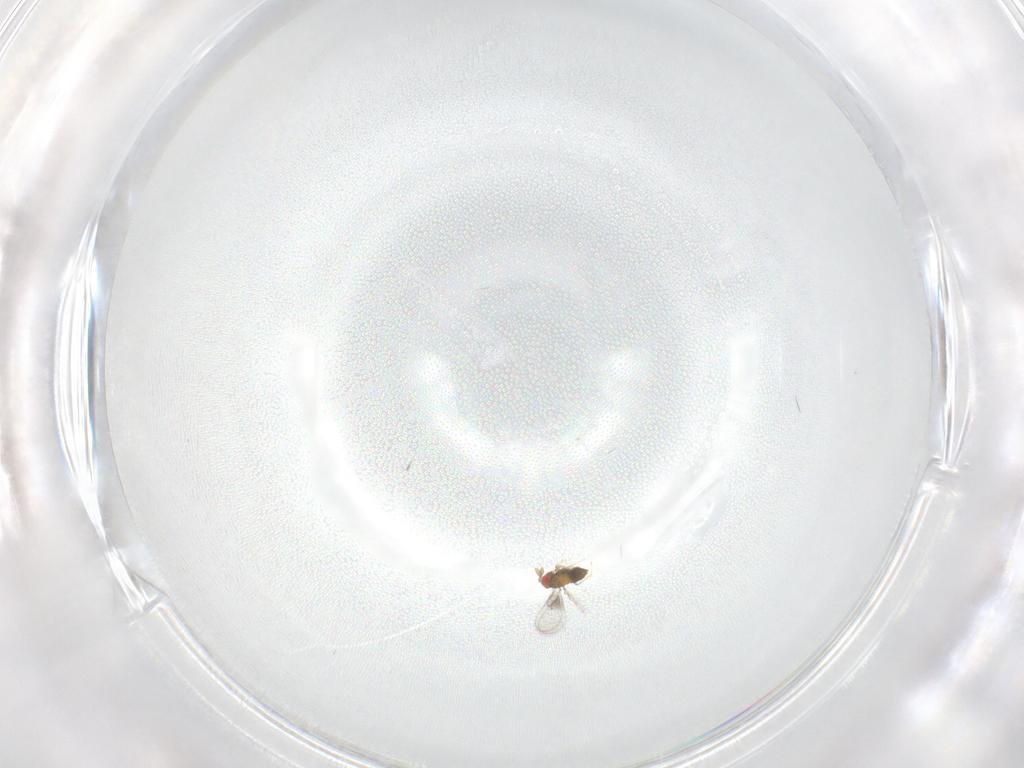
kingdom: Animalia
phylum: Arthropoda
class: Insecta
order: Hymenoptera
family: Trichogrammatidae
